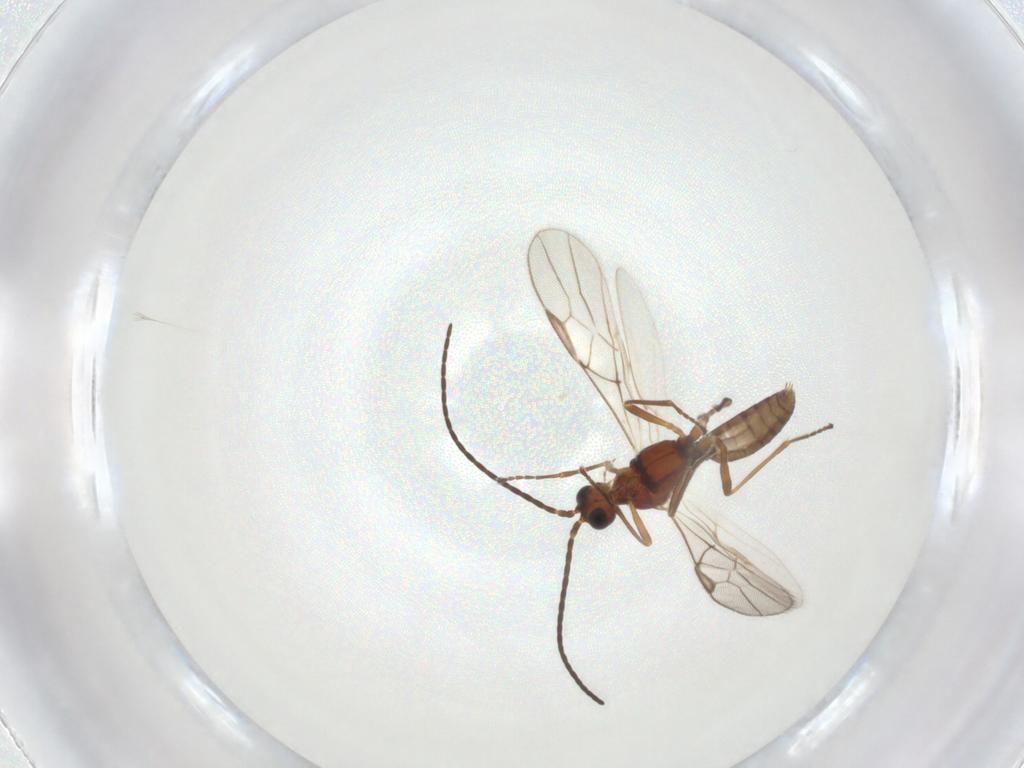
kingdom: Animalia
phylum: Arthropoda
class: Insecta
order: Hymenoptera
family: Braconidae
